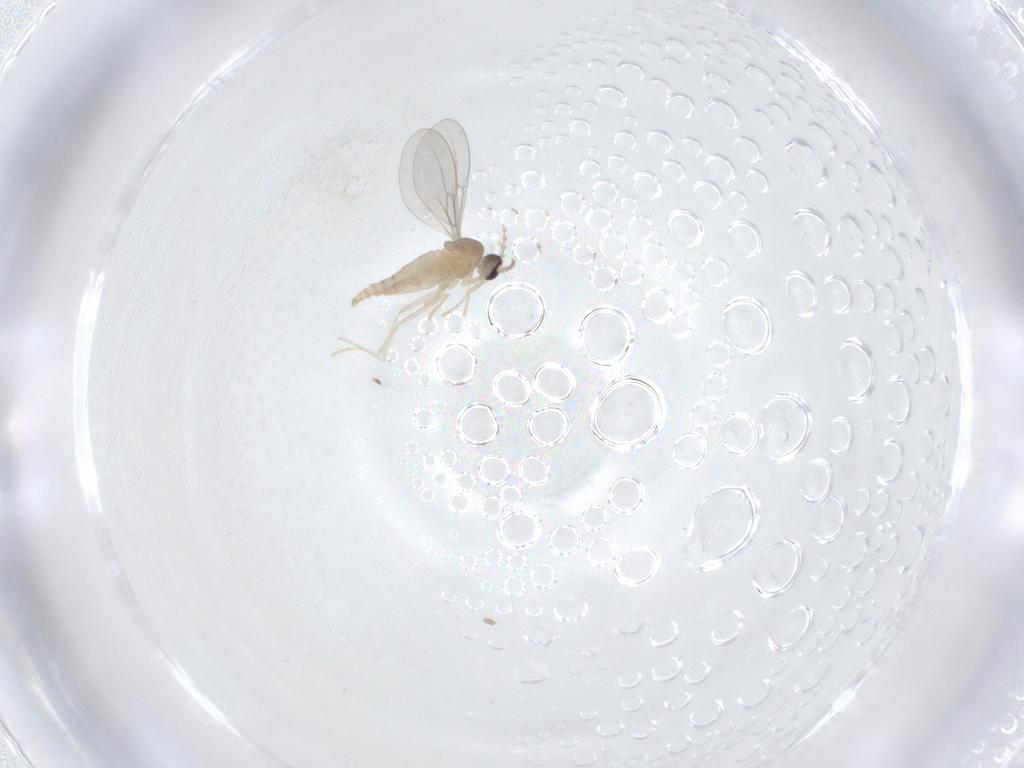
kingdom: Animalia
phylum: Arthropoda
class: Insecta
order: Diptera
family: Cecidomyiidae
